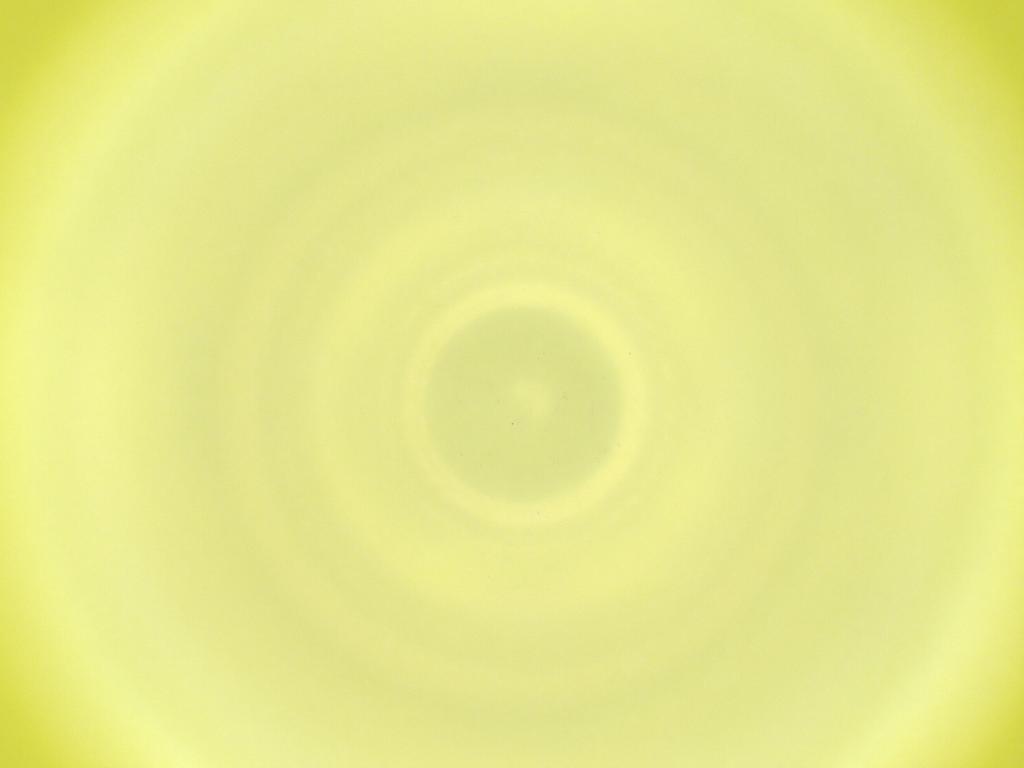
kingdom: Animalia
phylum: Arthropoda
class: Insecta
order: Diptera
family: Cecidomyiidae
